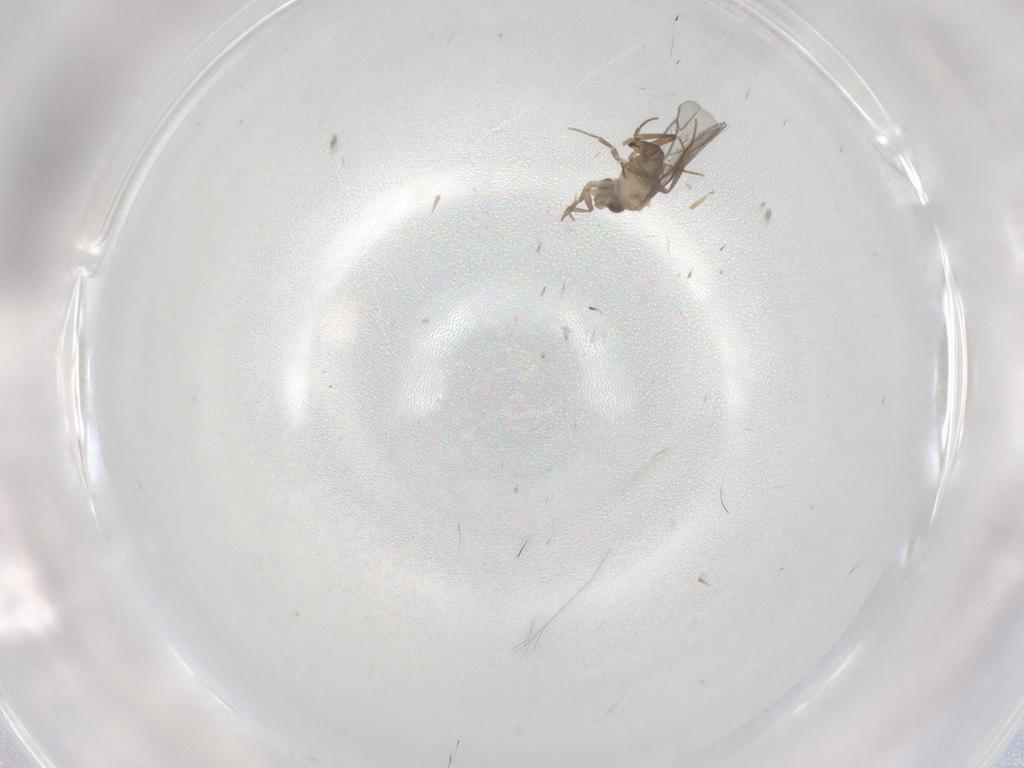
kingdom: Animalia
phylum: Arthropoda
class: Insecta
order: Diptera
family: Sciaridae
